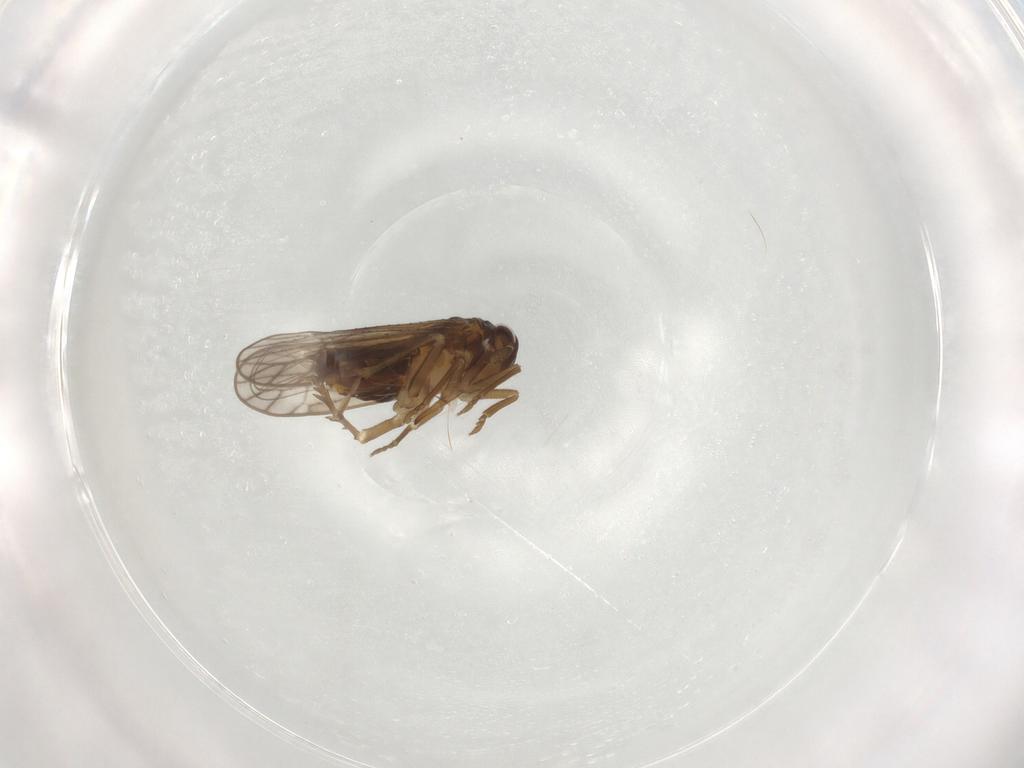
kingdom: Animalia
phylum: Arthropoda
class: Insecta
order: Hemiptera
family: Delphacidae
